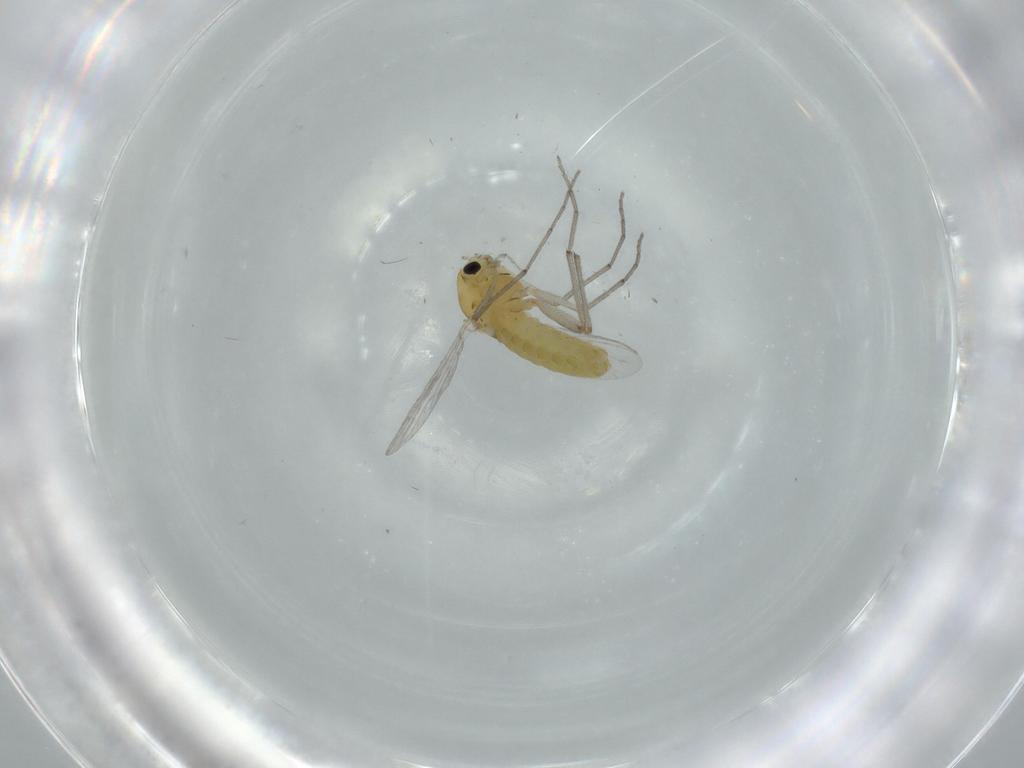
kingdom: Animalia
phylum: Arthropoda
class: Insecta
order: Diptera
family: Chironomidae
